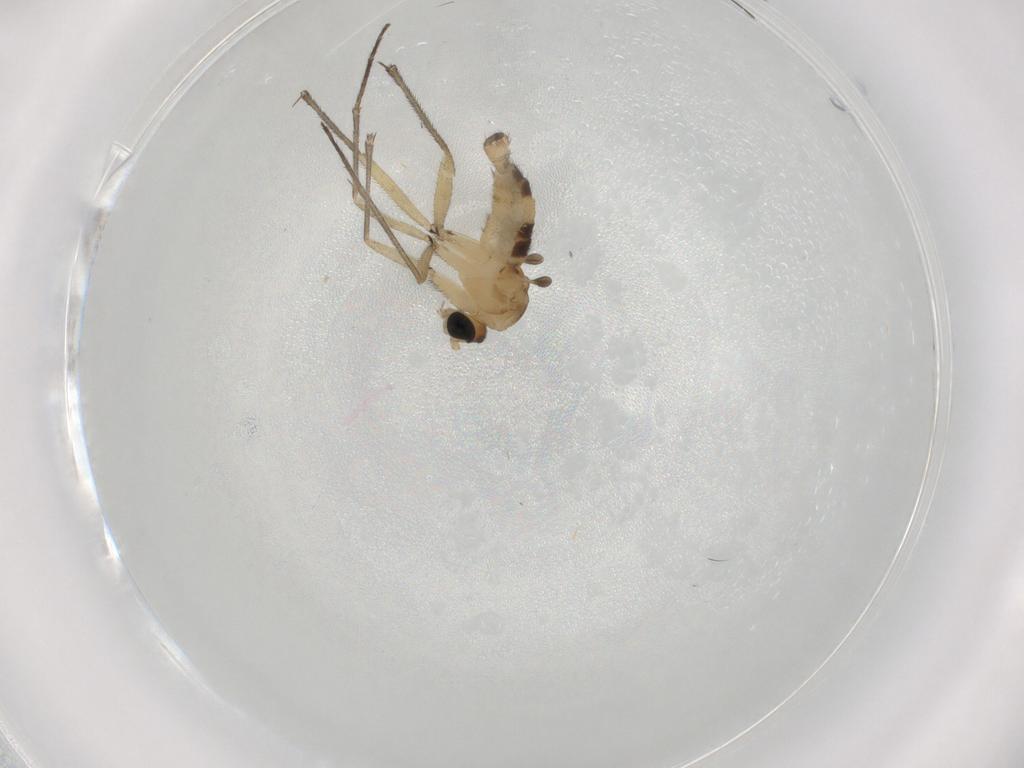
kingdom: Animalia
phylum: Arthropoda
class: Insecta
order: Diptera
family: Sciaridae
